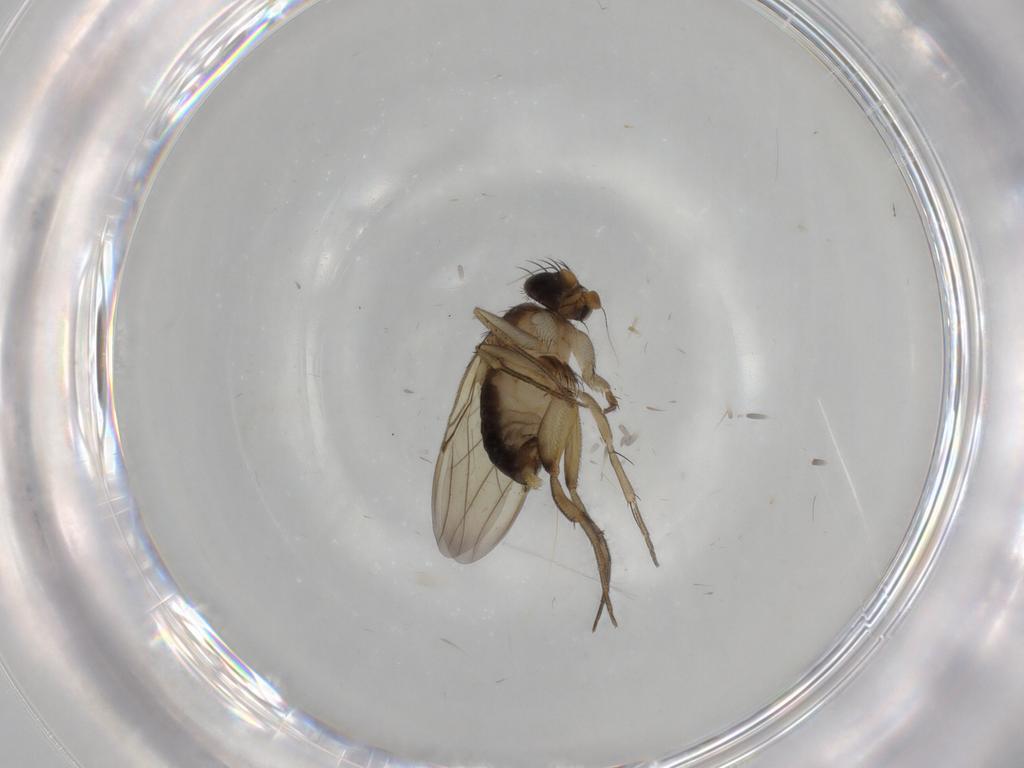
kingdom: Animalia
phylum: Arthropoda
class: Insecta
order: Diptera
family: Phoridae
